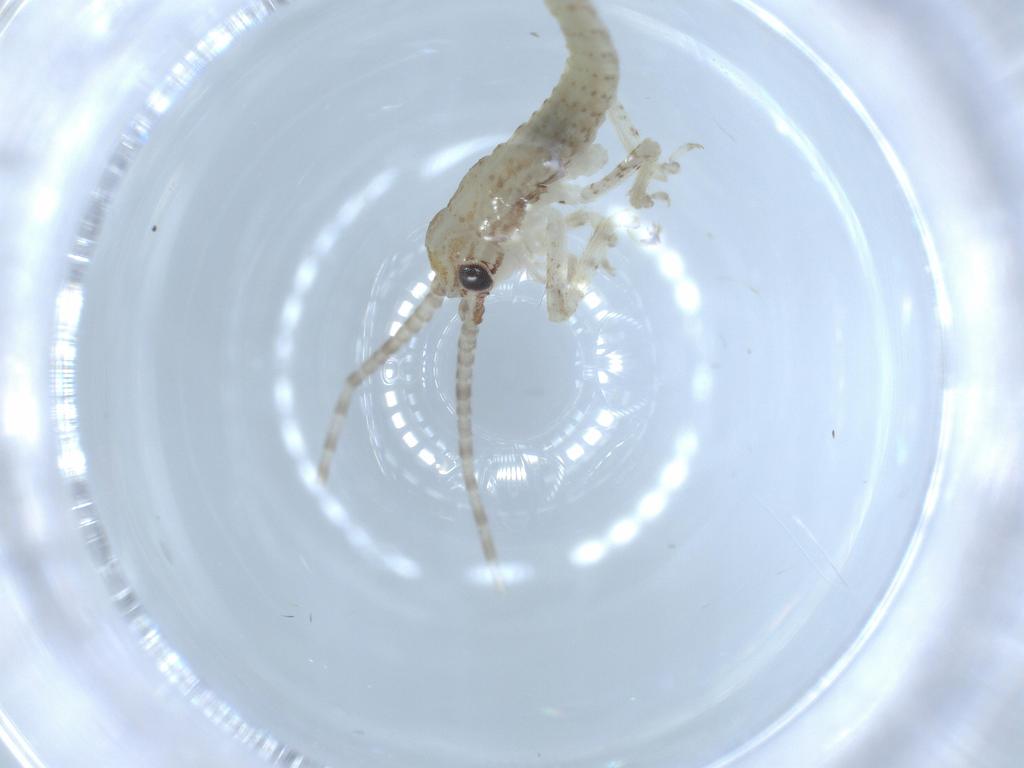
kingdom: Animalia
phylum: Arthropoda
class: Insecta
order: Orthoptera
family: Gryllidae
